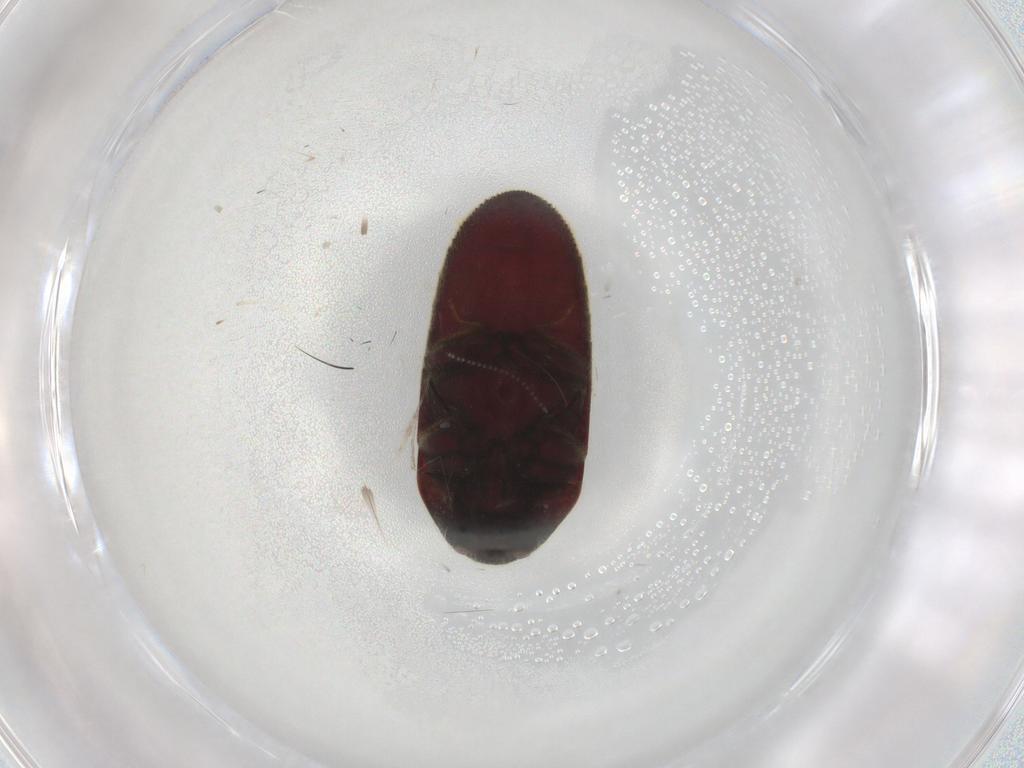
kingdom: Animalia
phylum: Arthropoda
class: Insecta
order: Coleoptera
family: Throscidae
